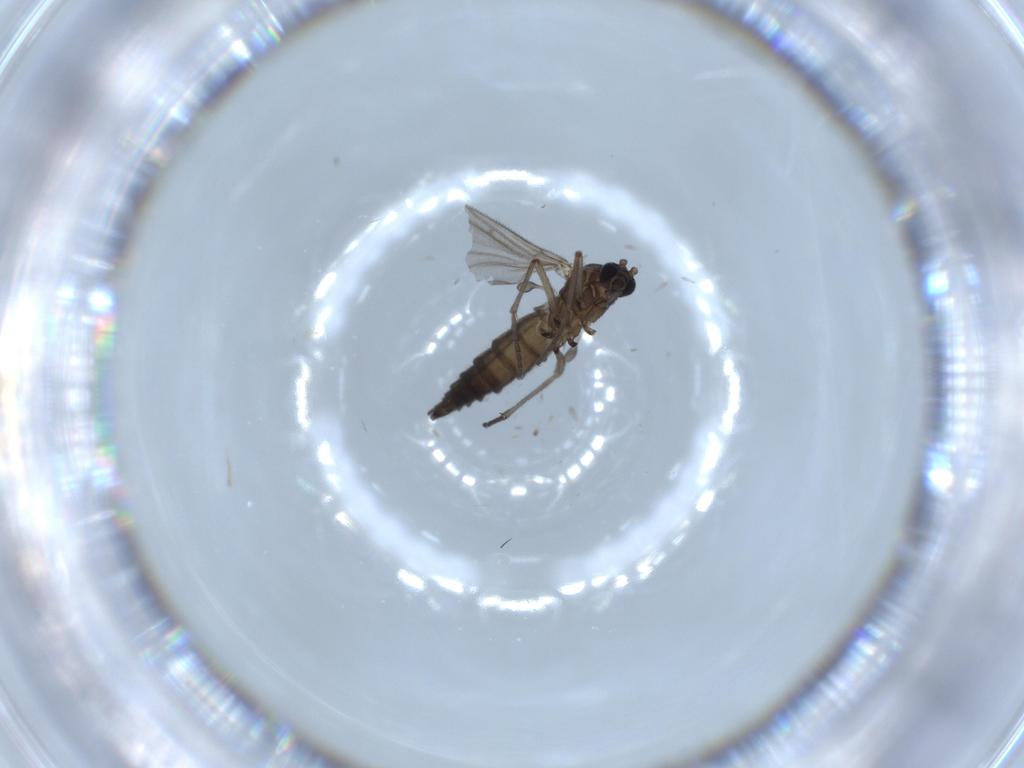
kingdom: Animalia
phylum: Arthropoda
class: Insecta
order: Diptera
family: Sciaridae
